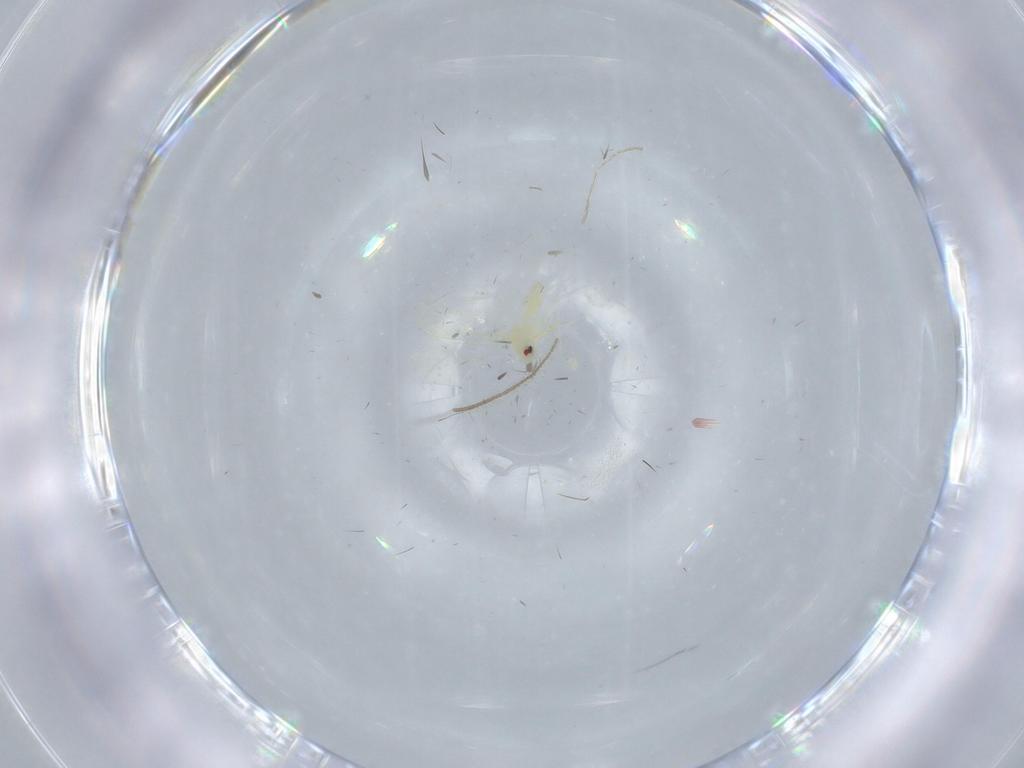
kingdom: Animalia
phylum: Arthropoda
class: Insecta
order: Hemiptera
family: Aleyrodidae
